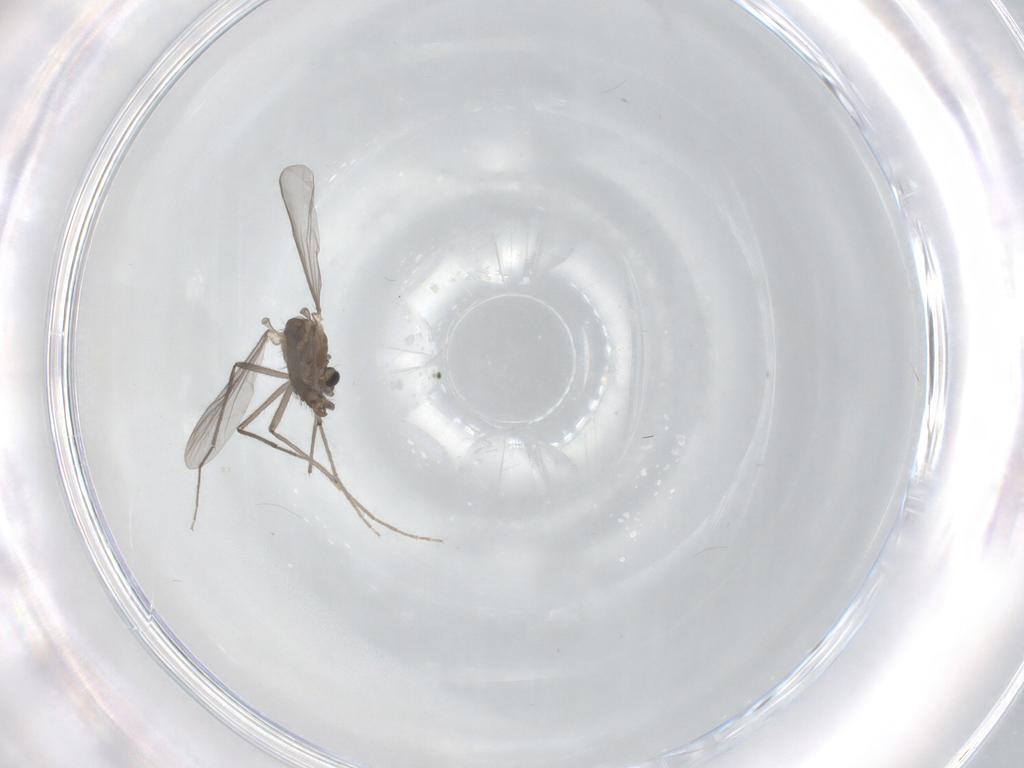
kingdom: Animalia
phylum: Arthropoda
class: Insecta
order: Diptera
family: Chironomidae
